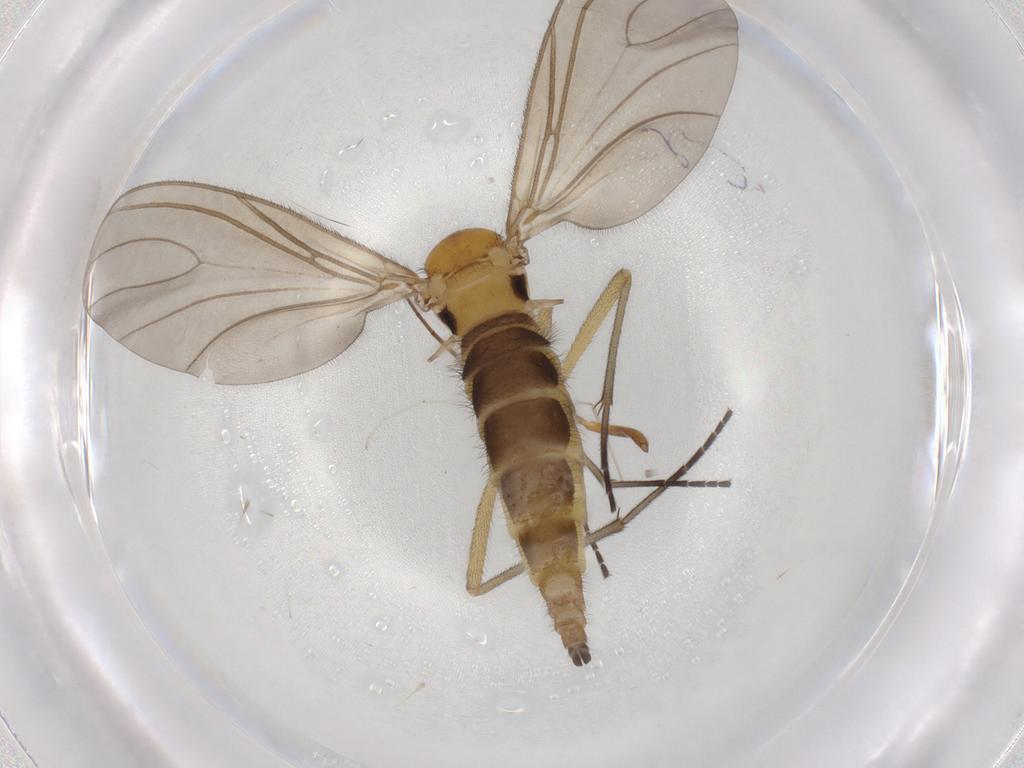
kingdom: Animalia
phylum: Arthropoda
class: Insecta
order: Diptera
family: Sciaridae
